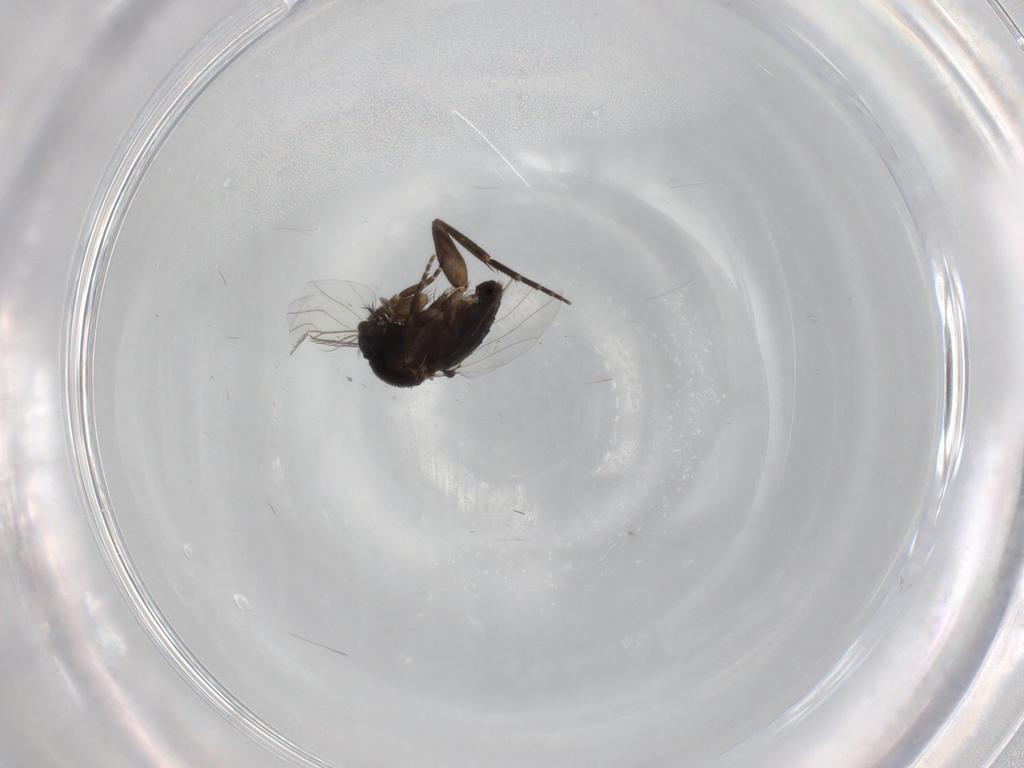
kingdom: Animalia
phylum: Arthropoda
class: Insecta
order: Diptera
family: Phoridae
